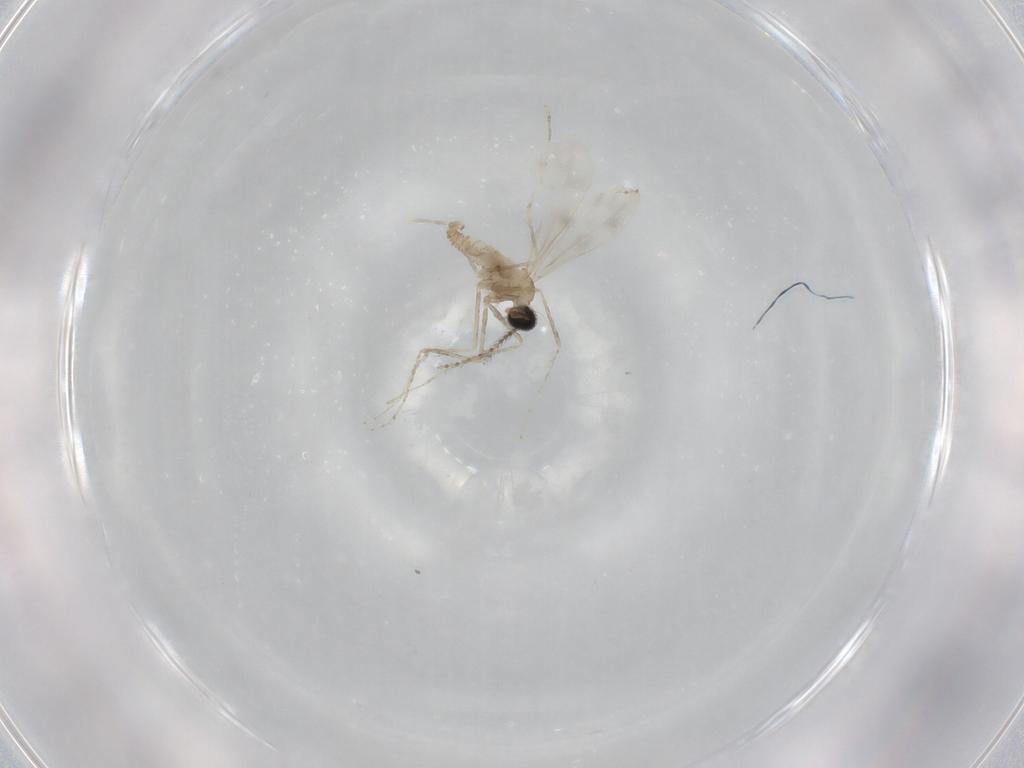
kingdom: Animalia
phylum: Arthropoda
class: Insecta
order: Diptera
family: Cecidomyiidae
